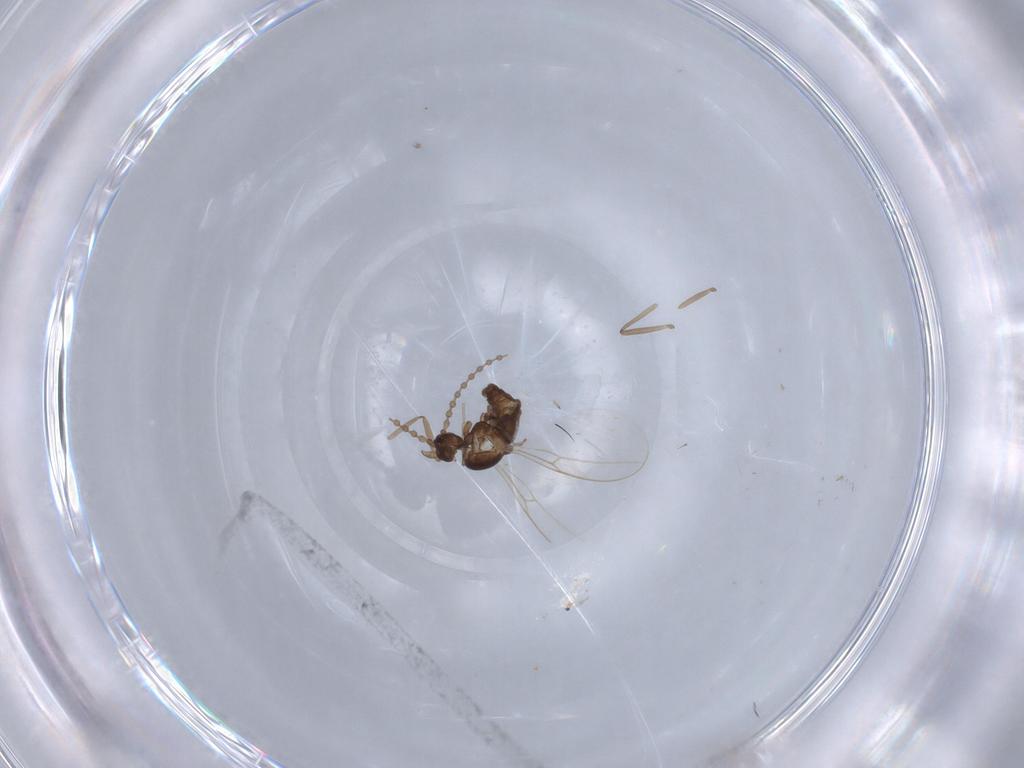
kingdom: Animalia
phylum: Arthropoda
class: Insecta
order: Diptera
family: Cecidomyiidae
